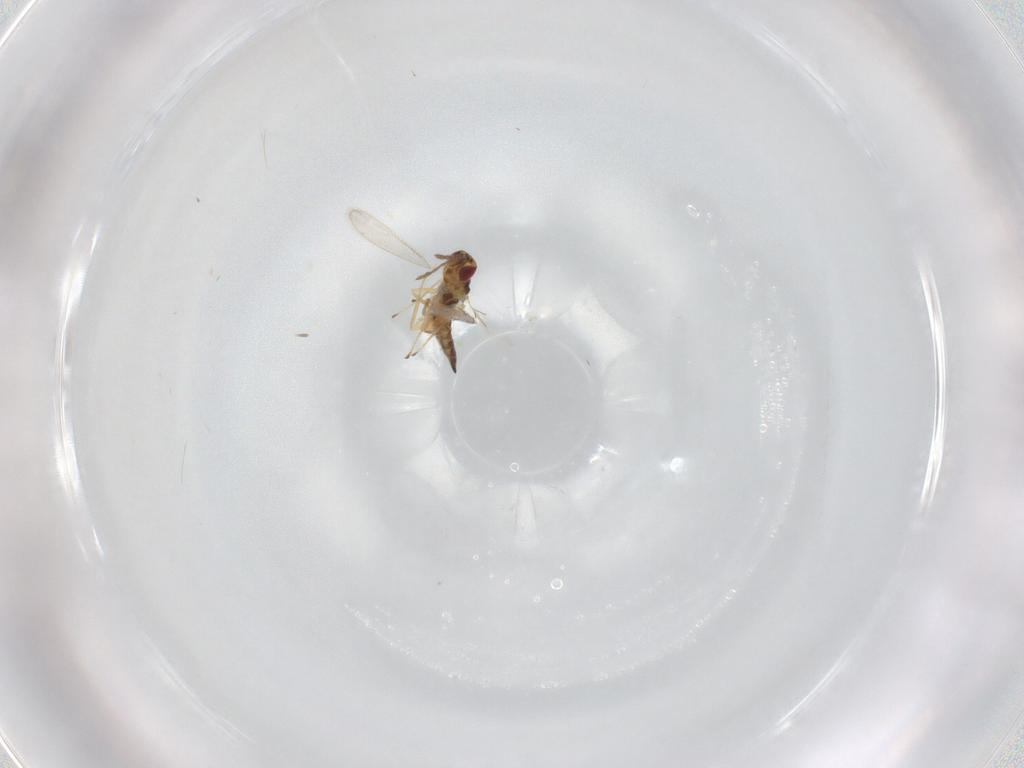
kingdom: Animalia
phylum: Arthropoda
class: Insecta
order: Hymenoptera
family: Eulophidae
